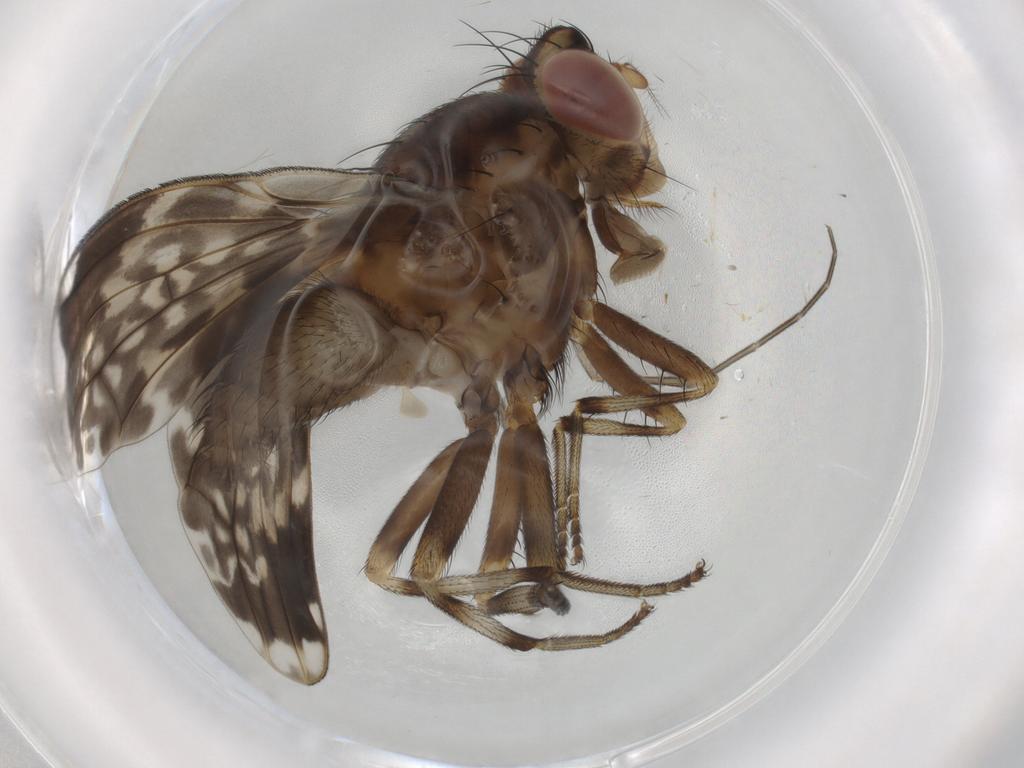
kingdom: Animalia
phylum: Arthropoda
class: Insecta
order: Diptera
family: Keroplatidae
